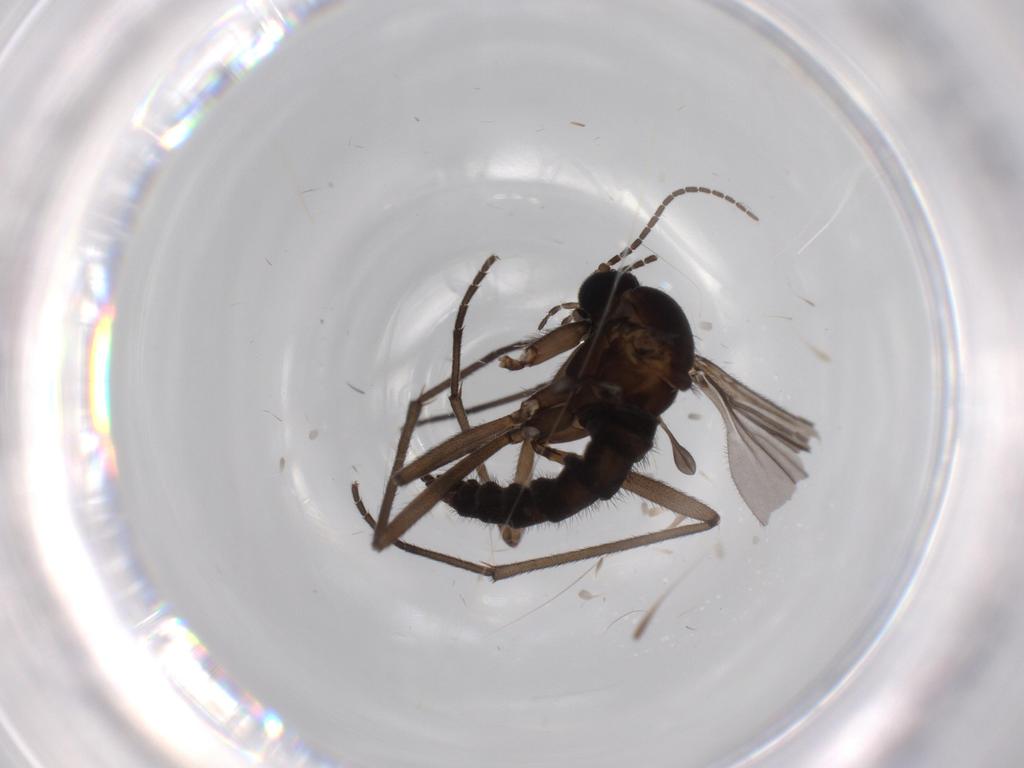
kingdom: Animalia
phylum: Arthropoda
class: Insecta
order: Diptera
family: Sciaridae
